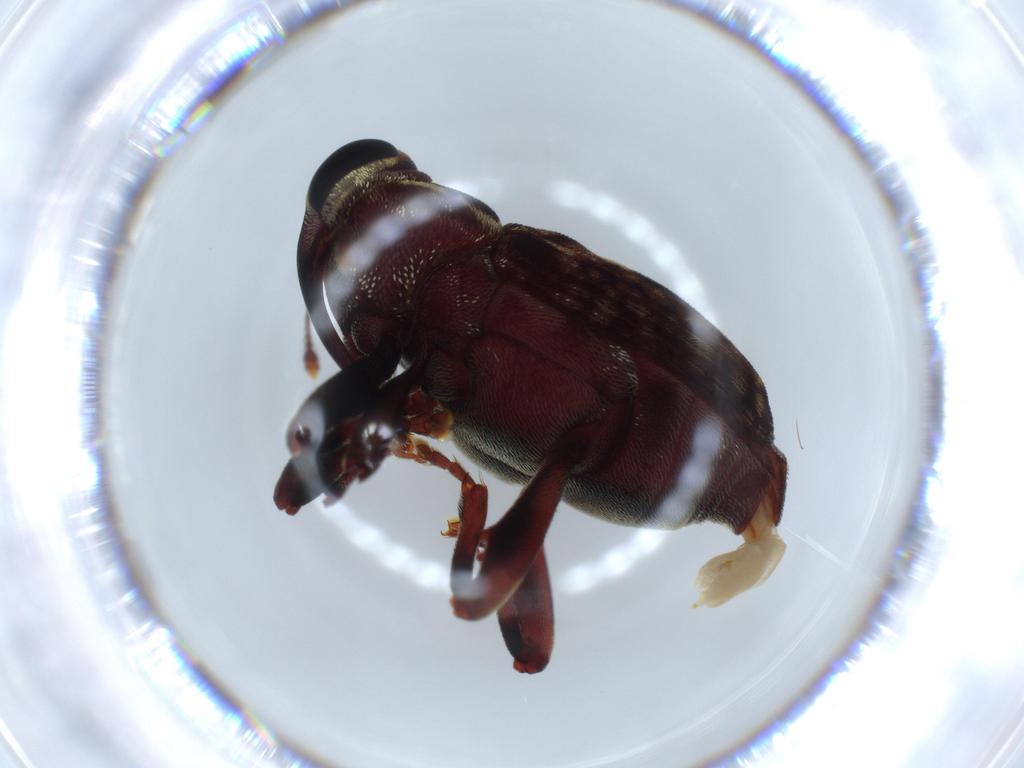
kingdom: Animalia
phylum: Arthropoda
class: Insecta
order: Coleoptera
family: Curculionidae
